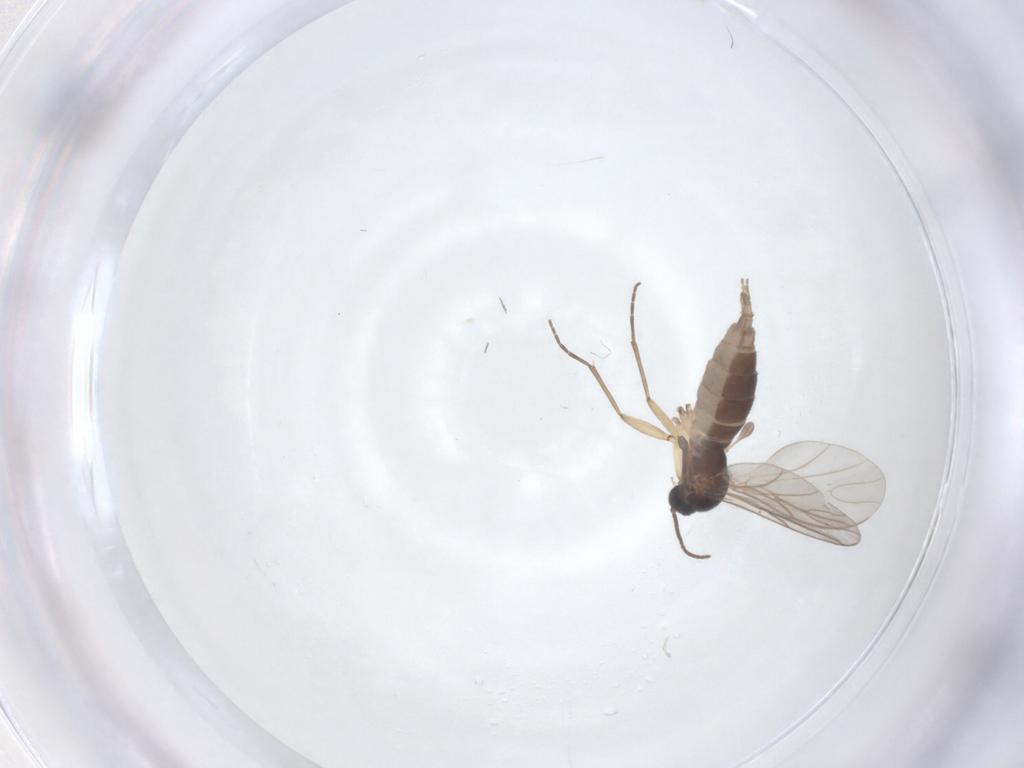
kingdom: Animalia
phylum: Arthropoda
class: Insecta
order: Diptera
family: Sciaridae
